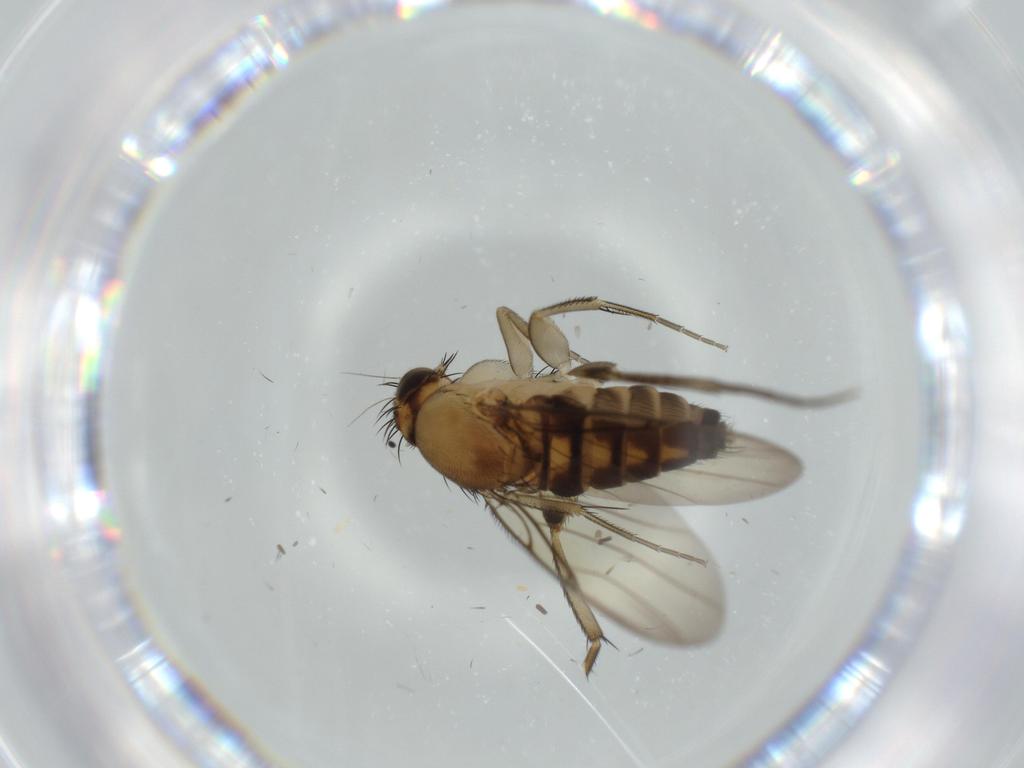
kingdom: Animalia
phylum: Arthropoda
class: Insecta
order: Diptera
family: Phoridae
